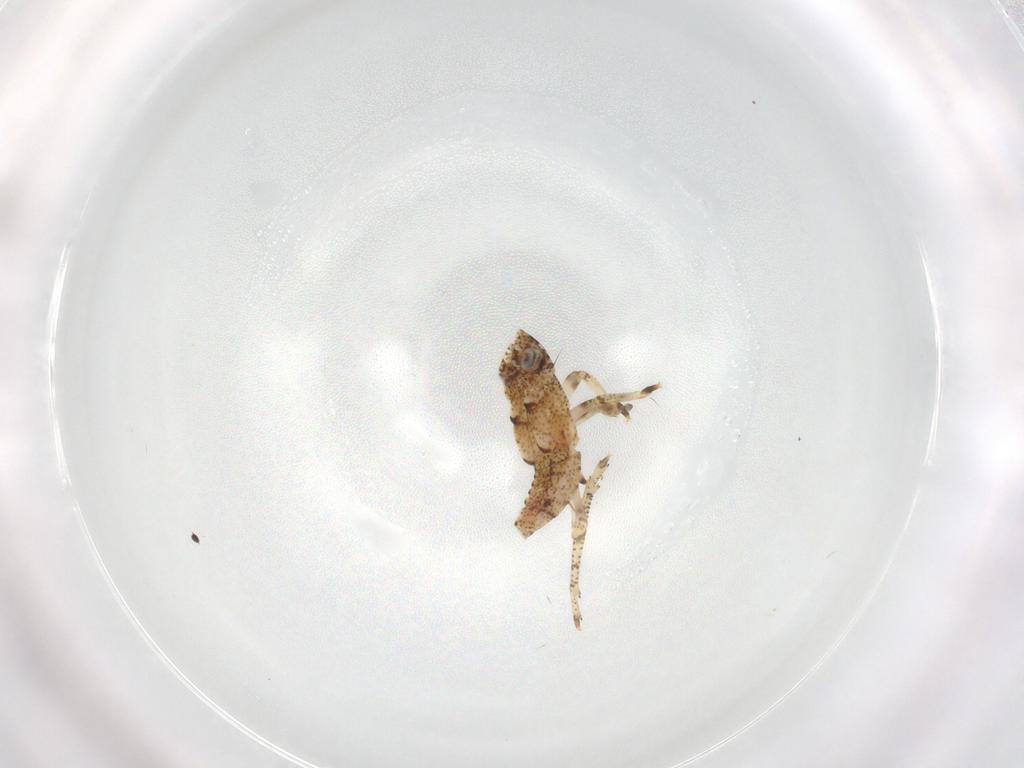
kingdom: Animalia
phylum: Arthropoda
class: Insecta
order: Hemiptera
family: Gengidae
